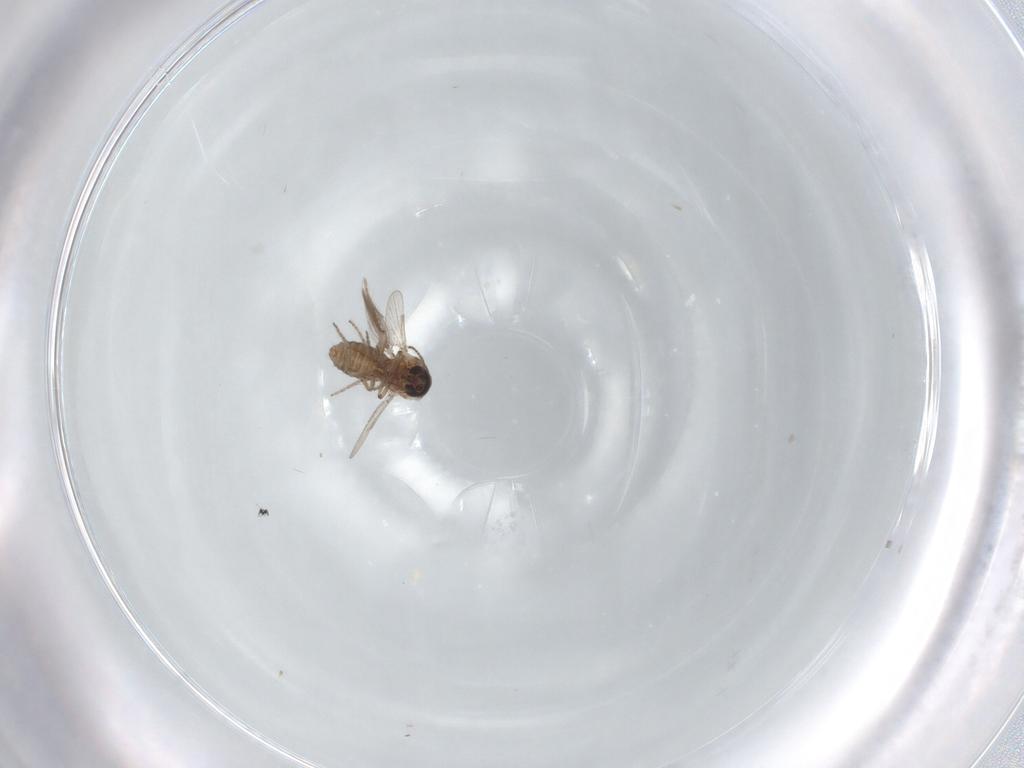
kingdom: Animalia
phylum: Arthropoda
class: Insecta
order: Diptera
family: Ceratopogonidae
